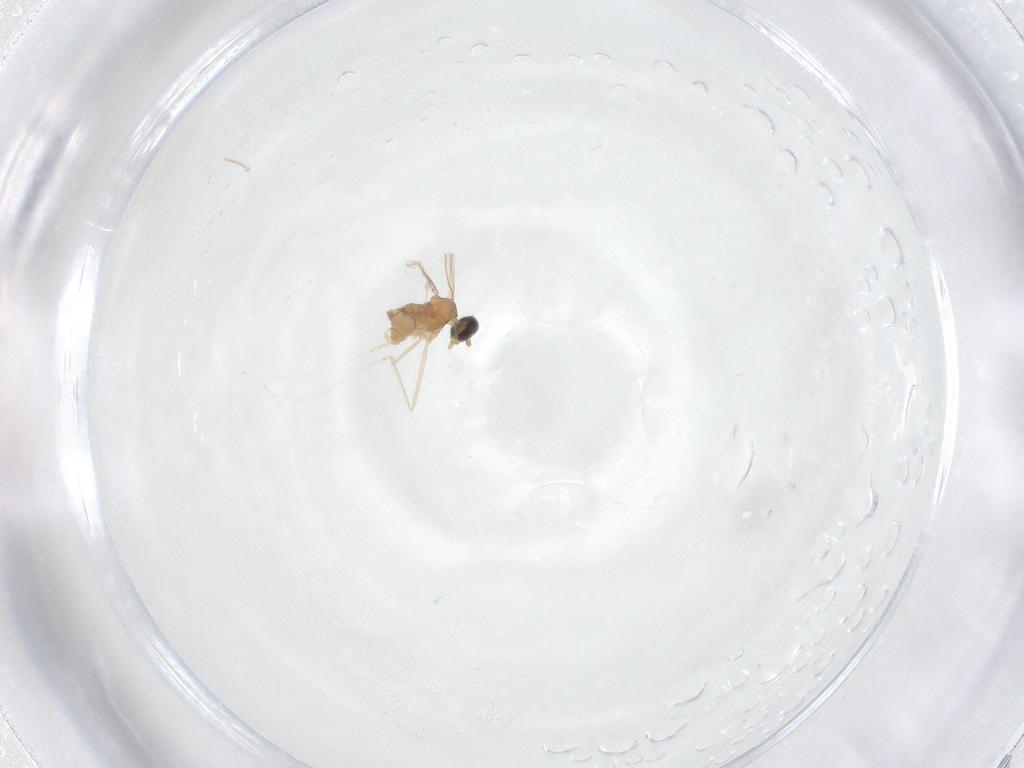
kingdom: Animalia
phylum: Arthropoda
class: Insecta
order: Diptera
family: Cecidomyiidae
